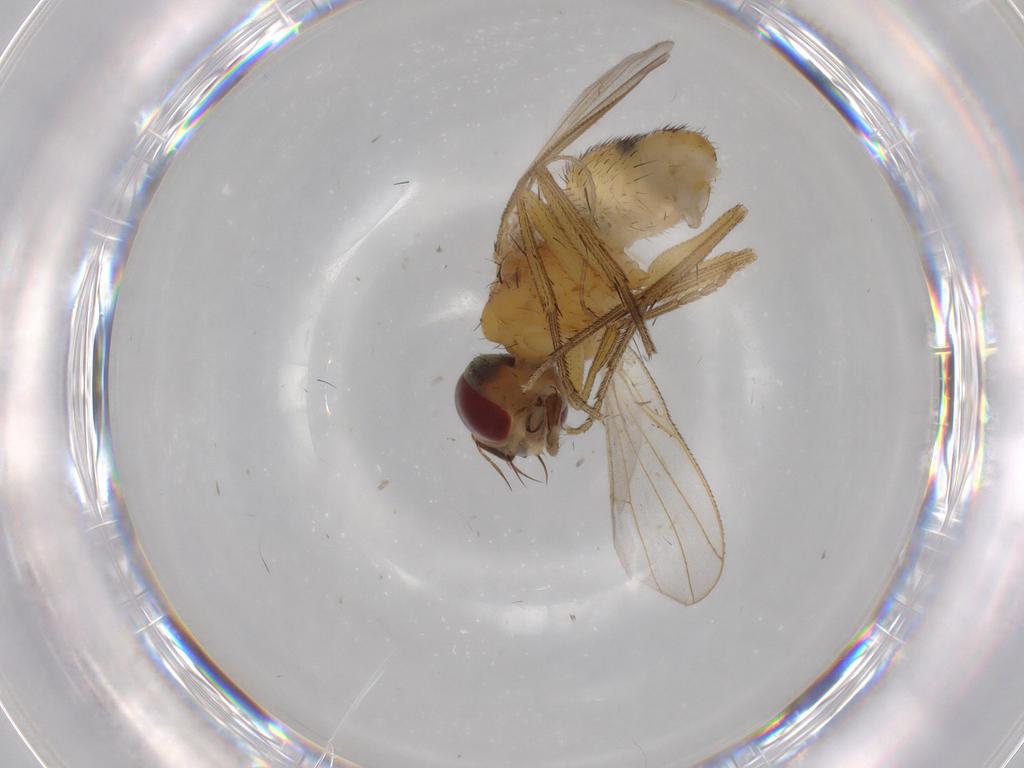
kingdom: Animalia
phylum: Arthropoda
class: Insecta
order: Diptera
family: Muscidae
